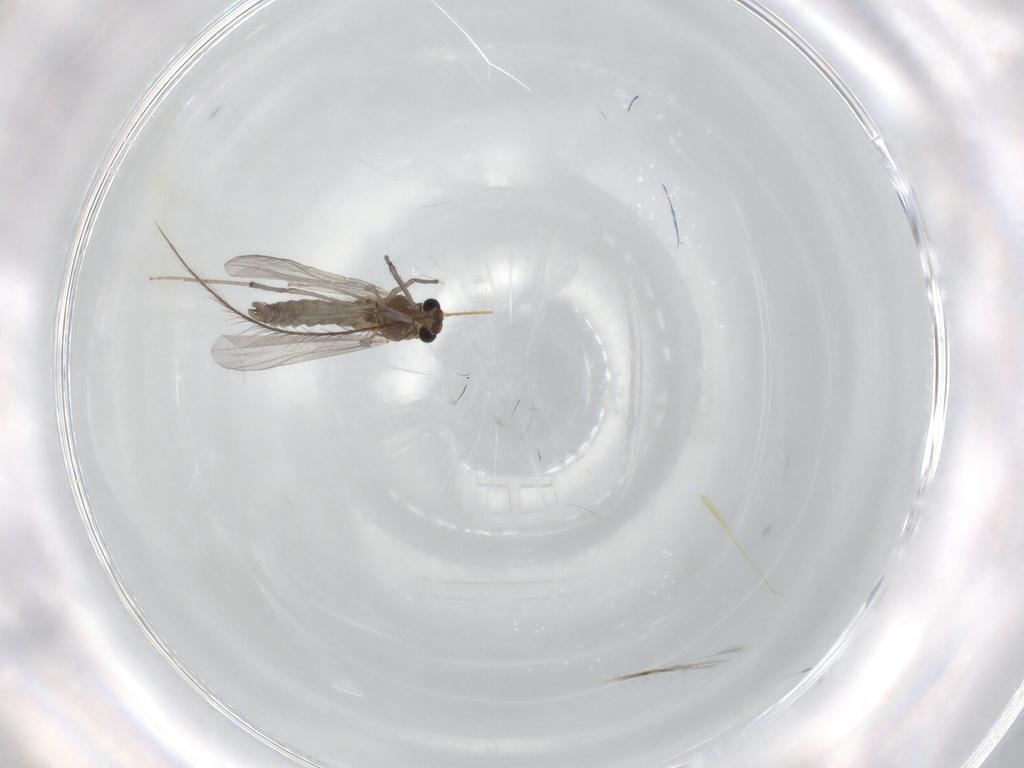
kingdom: Animalia
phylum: Arthropoda
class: Insecta
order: Diptera
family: Chironomidae
